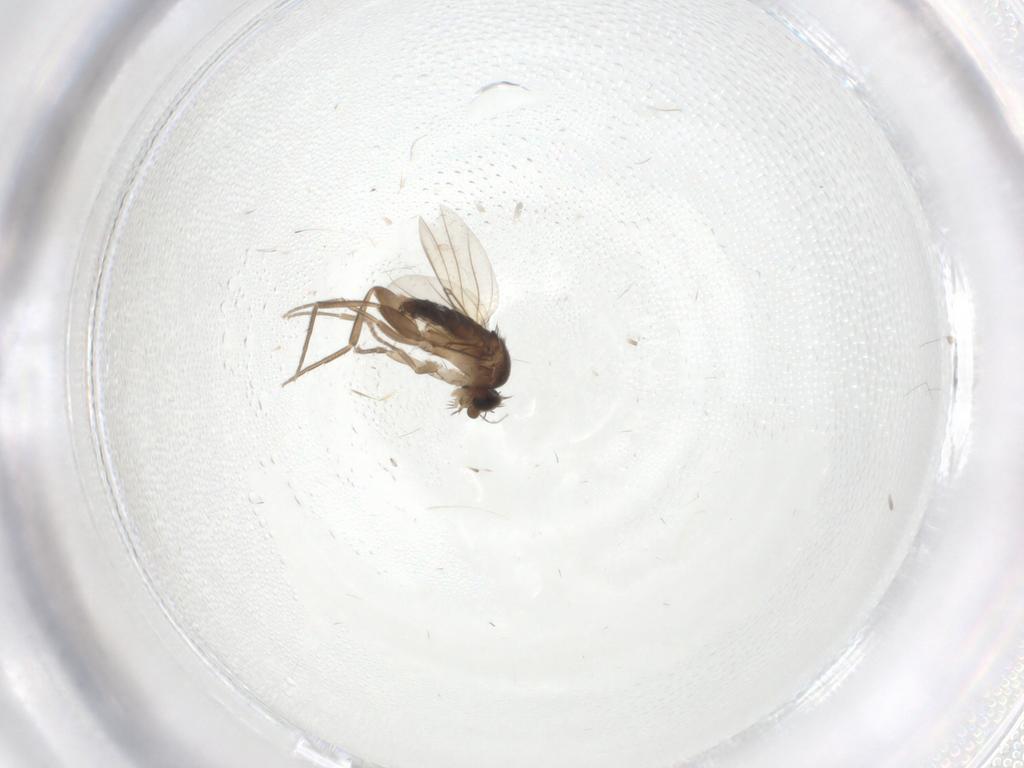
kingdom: Animalia
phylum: Arthropoda
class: Insecta
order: Diptera
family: Phoridae
